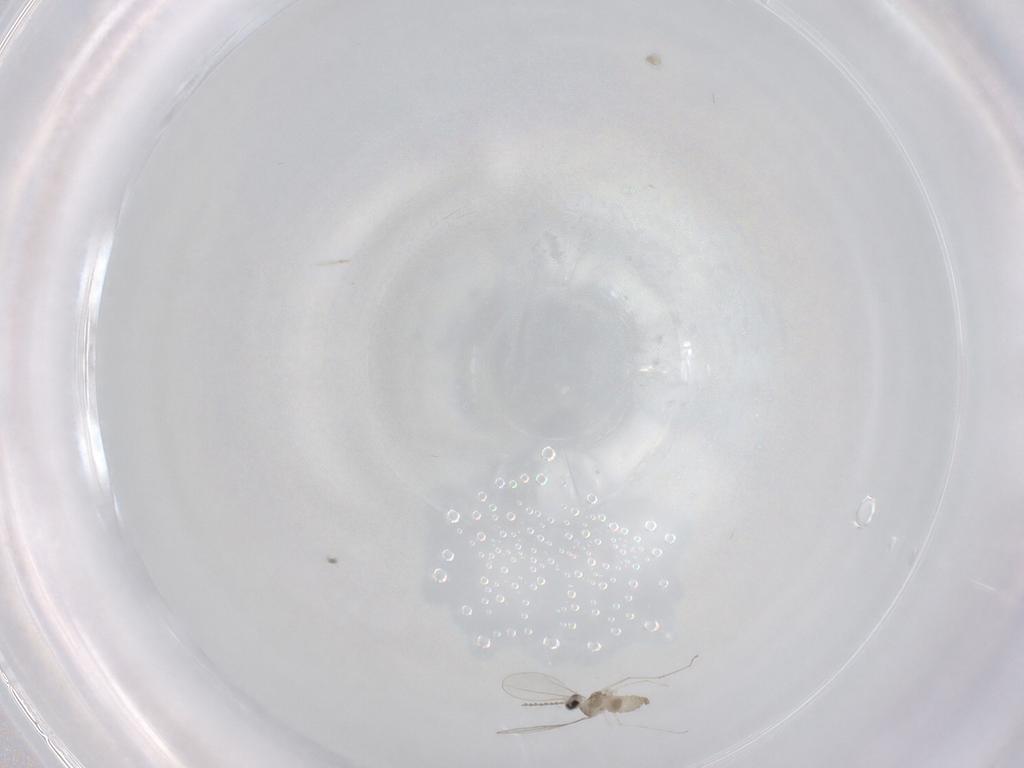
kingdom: Animalia
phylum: Arthropoda
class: Insecta
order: Diptera
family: Cecidomyiidae
